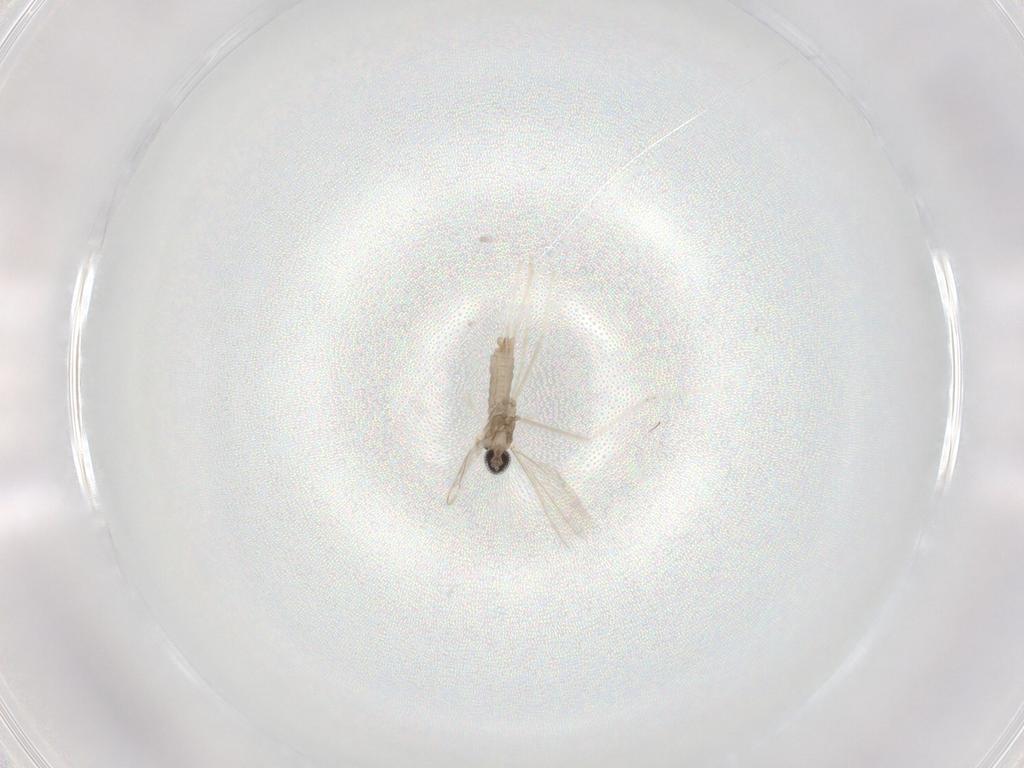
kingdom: Animalia
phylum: Arthropoda
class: Insecta
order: Diptera
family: Cecidomyiidae
